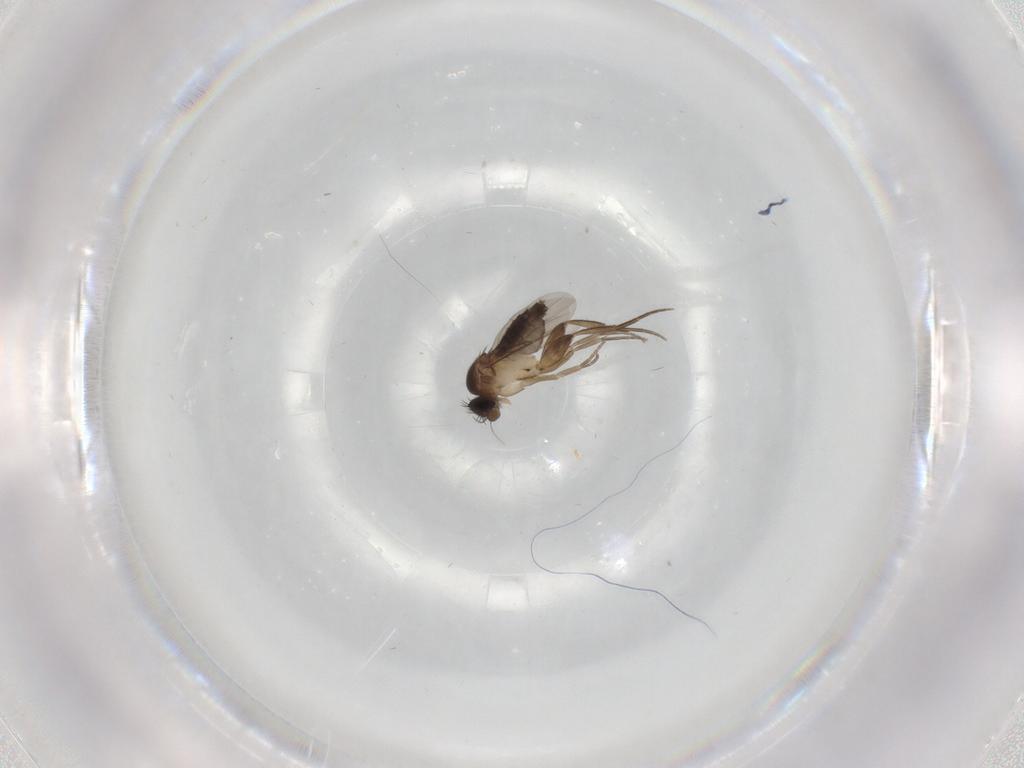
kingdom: Animalia
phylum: Arthropoda
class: Insecta
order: Diptera
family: Phoridae
